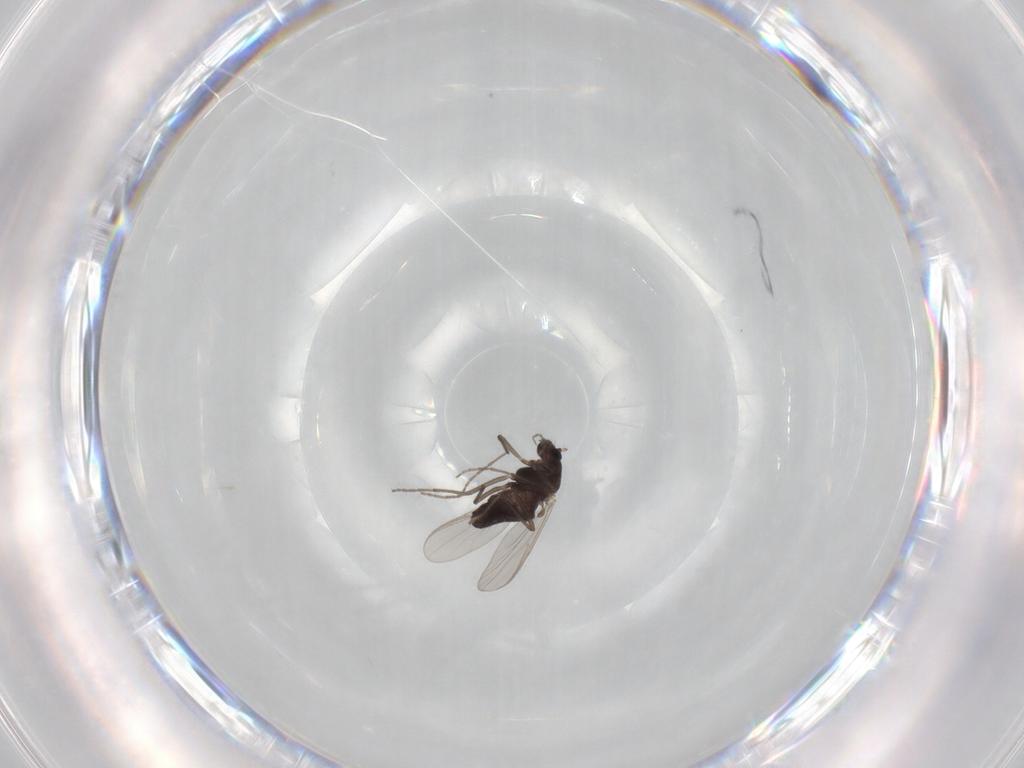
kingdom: Animalia
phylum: Arthropoda
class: Insecta
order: Diptera
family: Chironomidae
